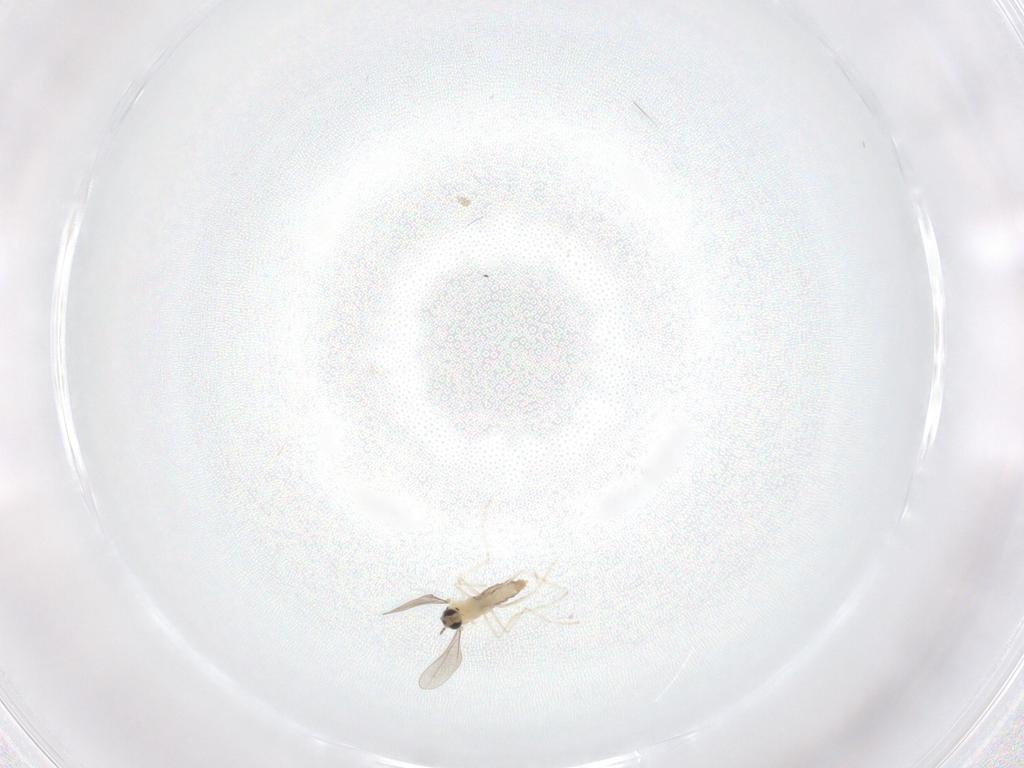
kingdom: Animalia
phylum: Arthropoda
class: Insecta
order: Diptera
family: Cecidomyiidae
